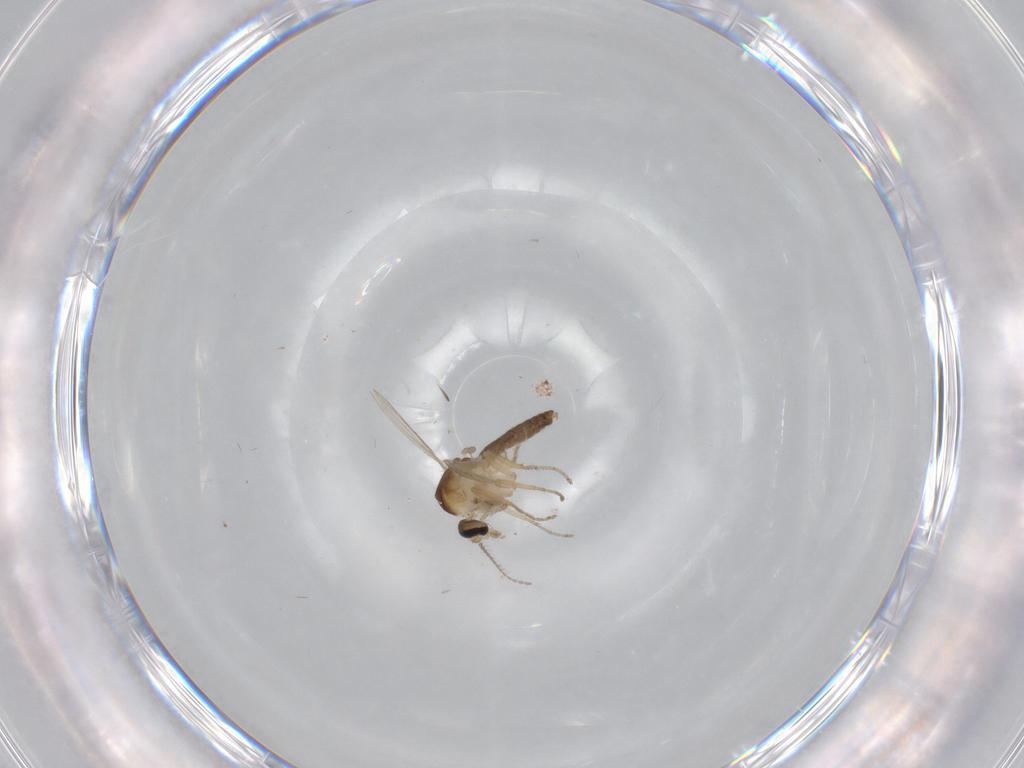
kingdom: Animalia
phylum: Arthropoda
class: Insecta
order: Diptera
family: Ceratopogonidae
